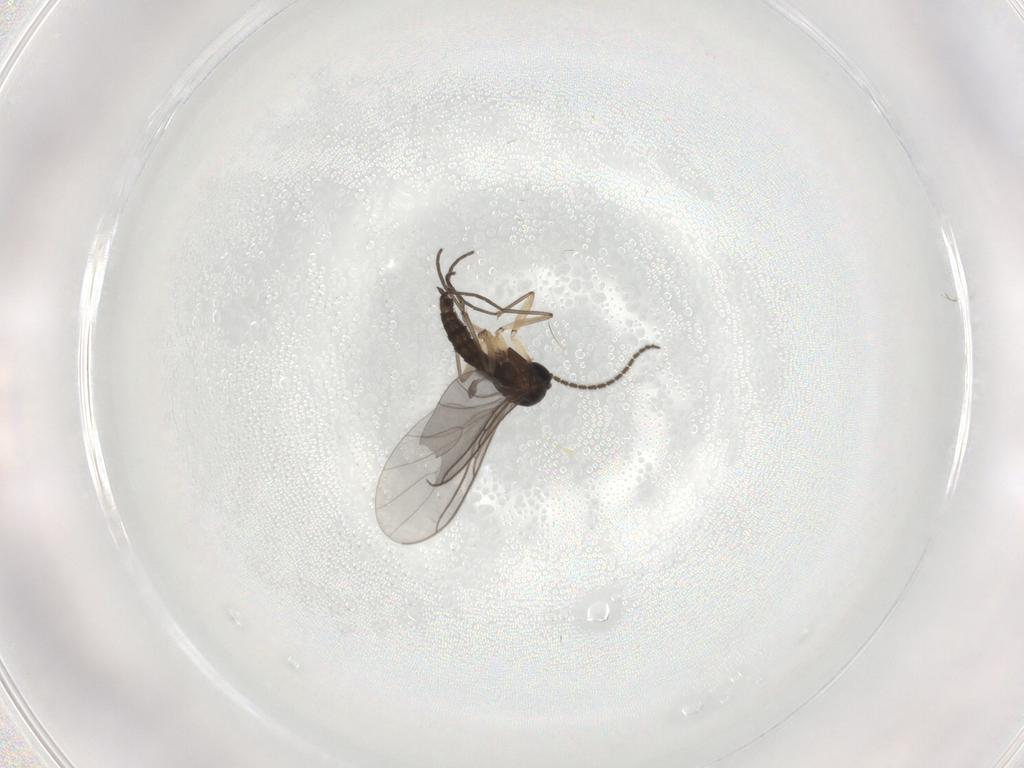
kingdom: Animalia
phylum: Arthropoda
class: Insecta
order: Diptera
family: Sciaridae
